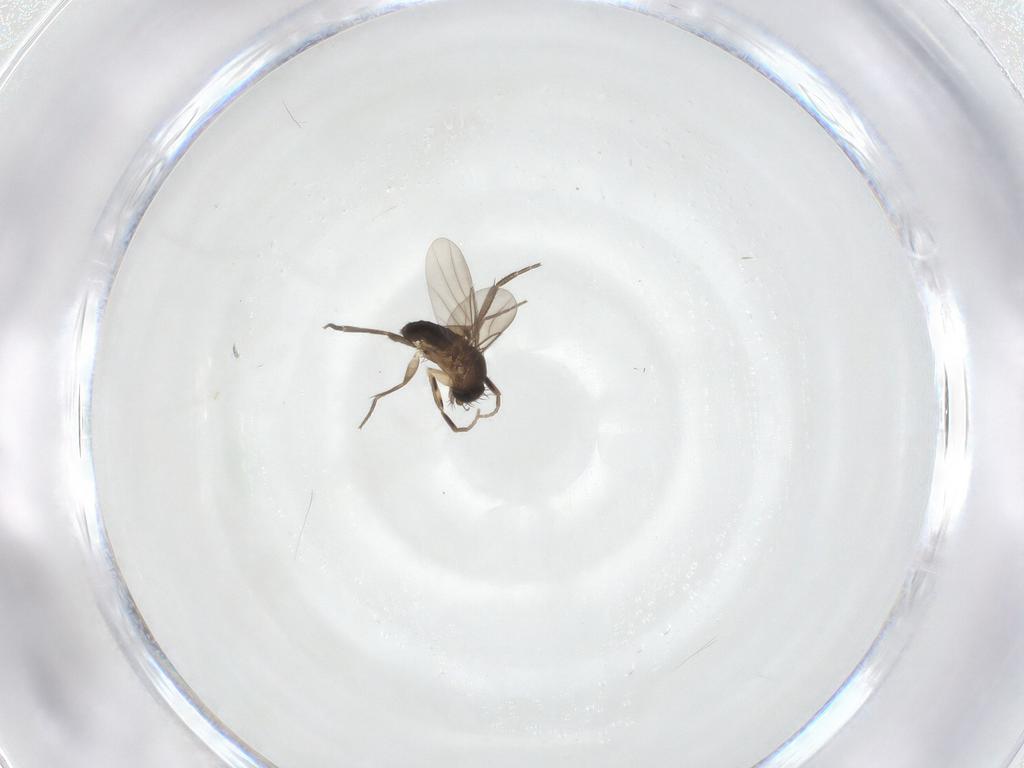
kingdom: Animalia
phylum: Arthropoda
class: Insecta
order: Diptera
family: Phoridae
